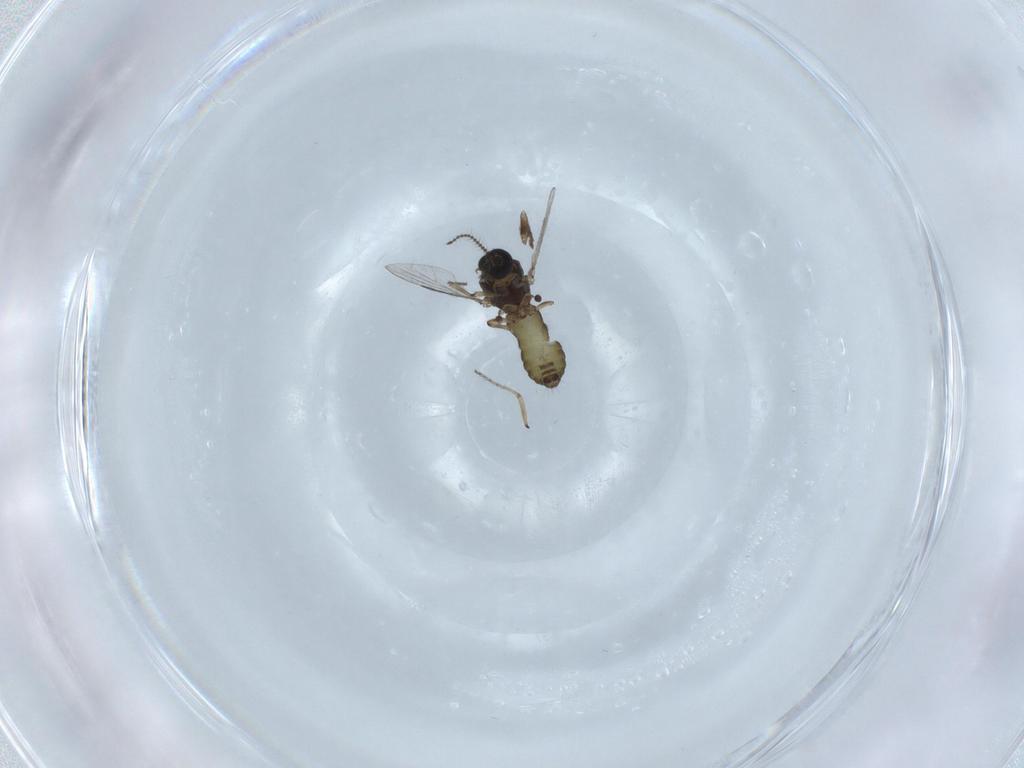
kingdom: Animalia
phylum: Arthropoda
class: Insecta
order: Diptera
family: Ceratopogonidae
